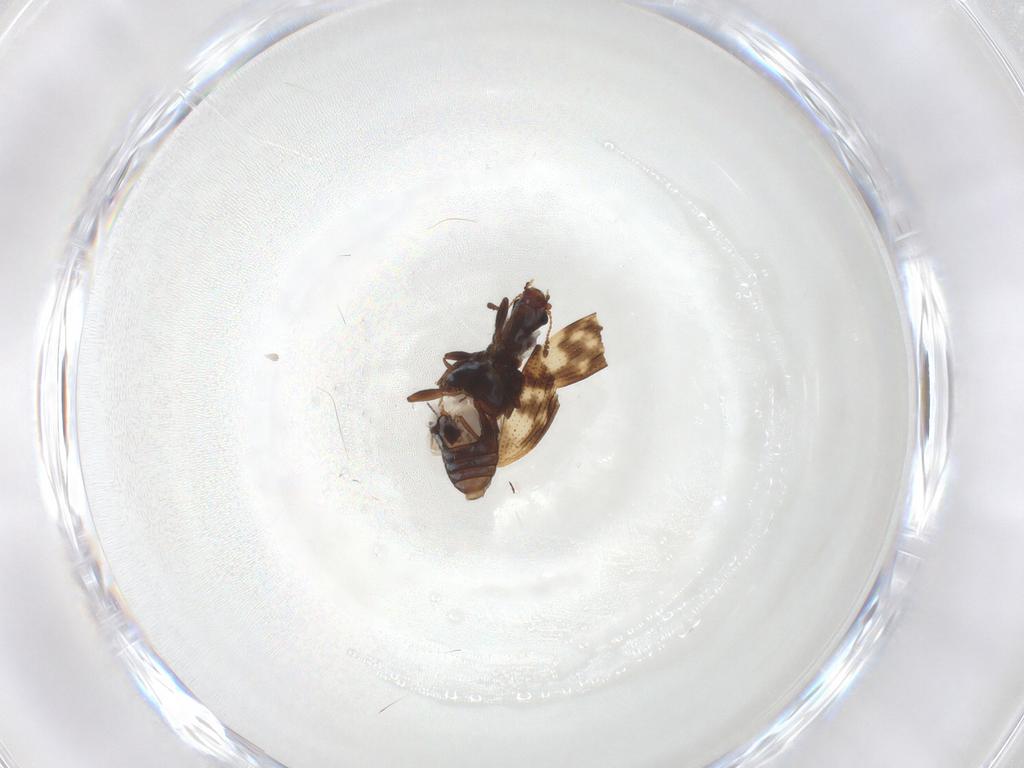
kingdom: Animalia
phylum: Arthropoda
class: Insecta
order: Coleoptera
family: Latridiidae
